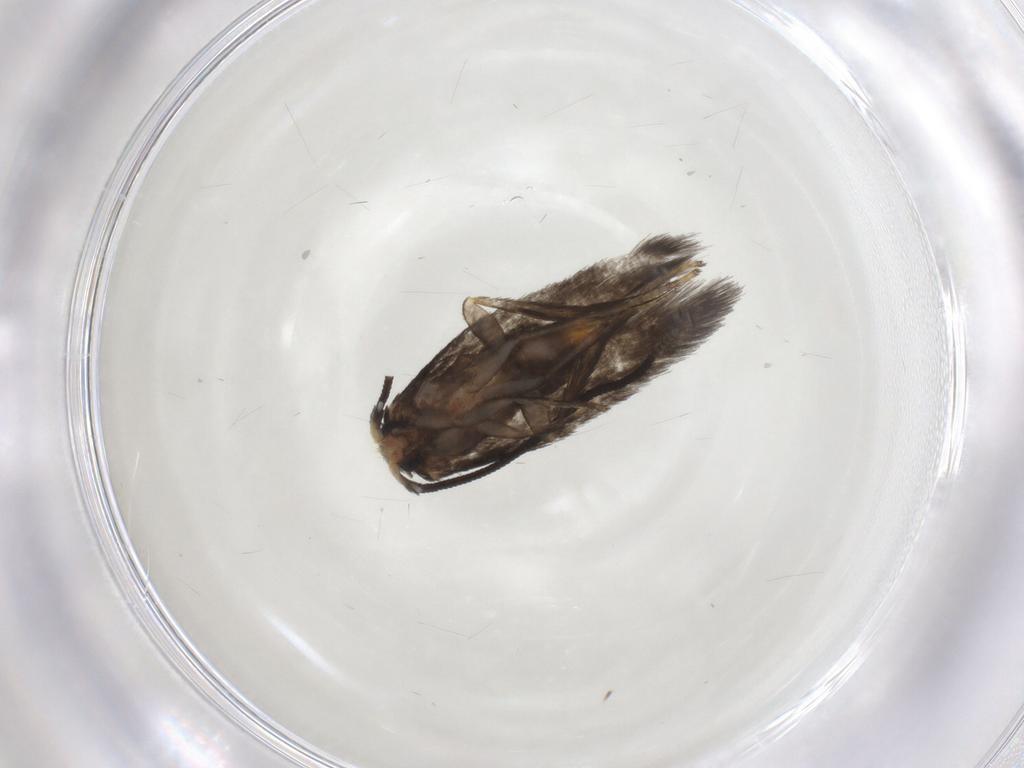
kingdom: Animalia
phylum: Arthropoda
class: Insecta
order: Lepidoptera
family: Nepticulidae
